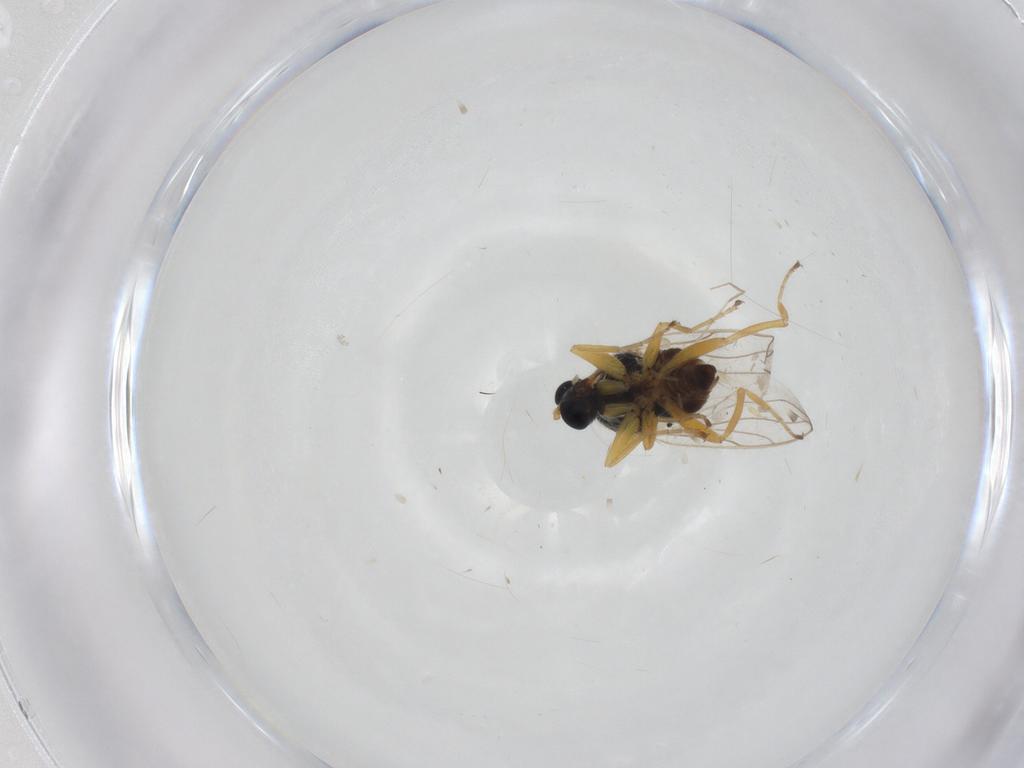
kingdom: Animalia
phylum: Arthropoda
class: Insecta
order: Diptera
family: Hybotidae
